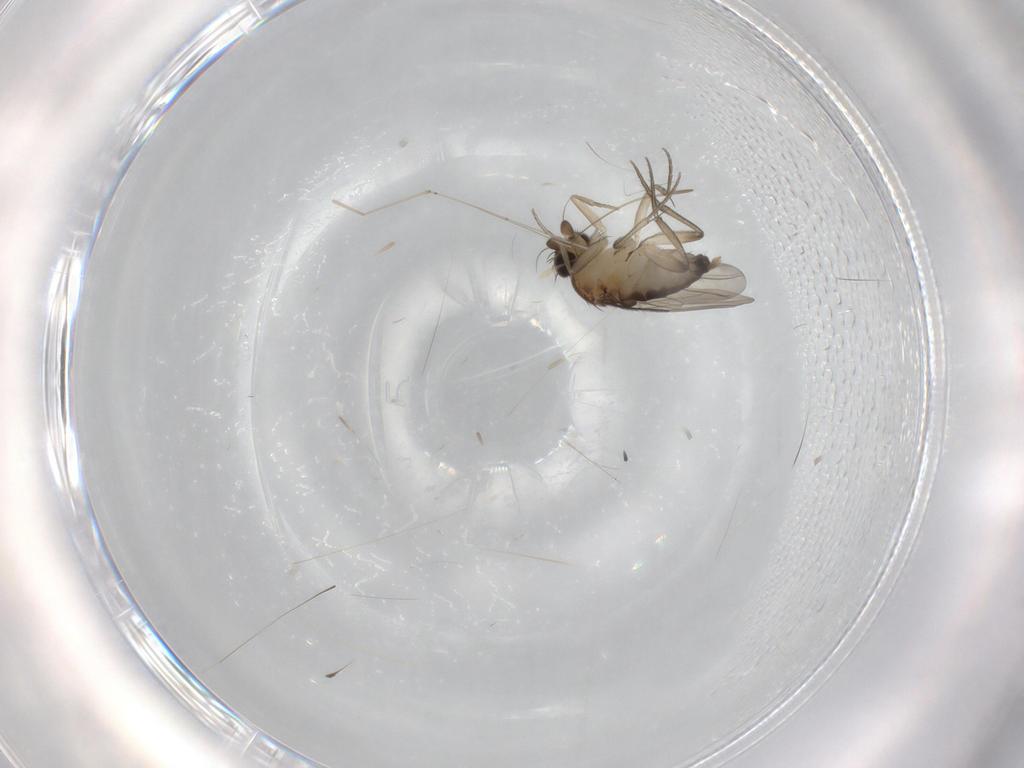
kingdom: Animalia
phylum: Arthropoda
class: Insecta
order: Diptera
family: Phoridae
